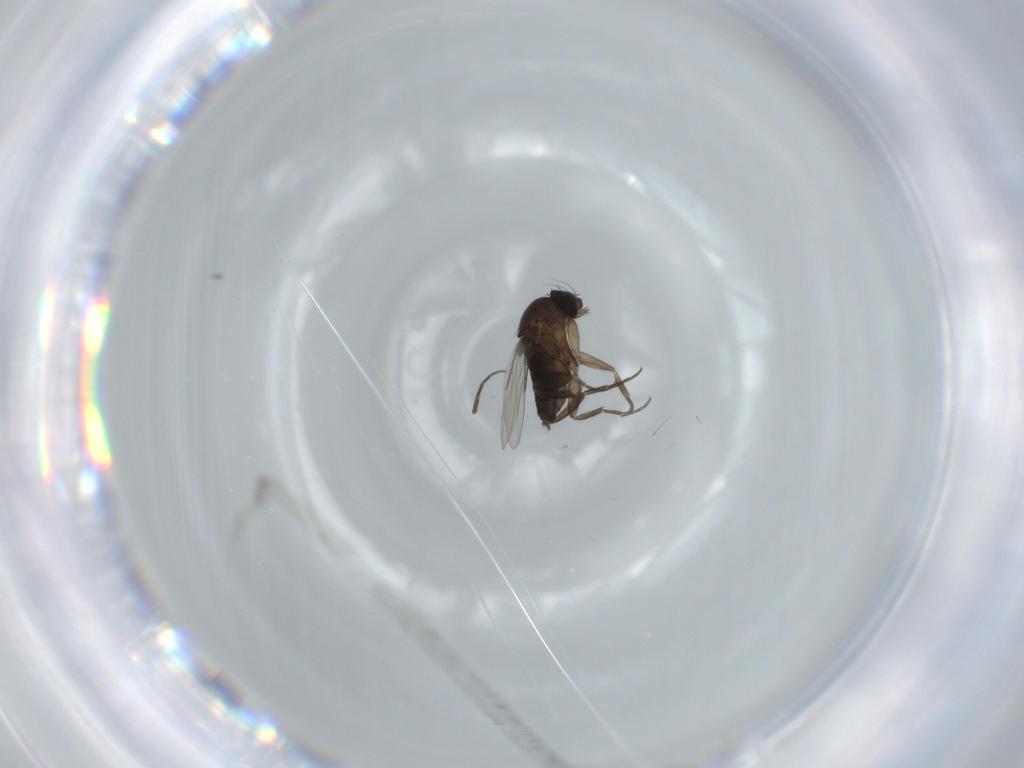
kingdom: Animalia
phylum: Arthropoda
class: Insecta
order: Diptera
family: Phoridae
